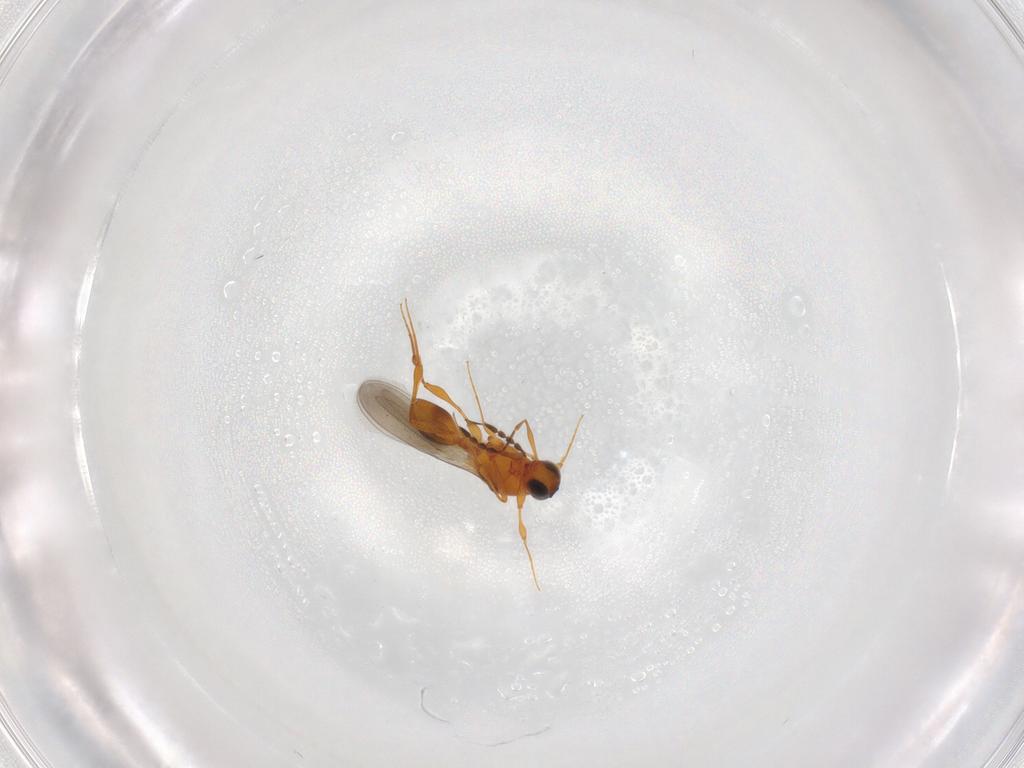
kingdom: Animalia
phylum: Arthropoda
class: Insecta
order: Hymenoptera
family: Platygastridae
